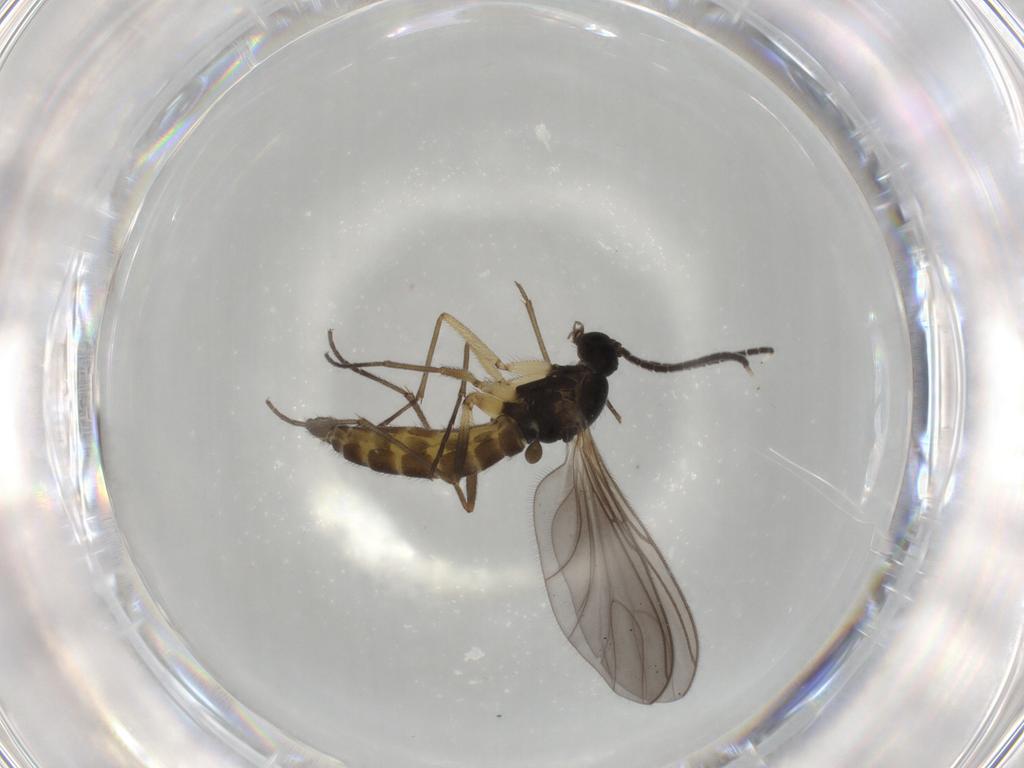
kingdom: Animalia
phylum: Arthropoda
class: Insecta
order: Diptera
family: Sciaridae
